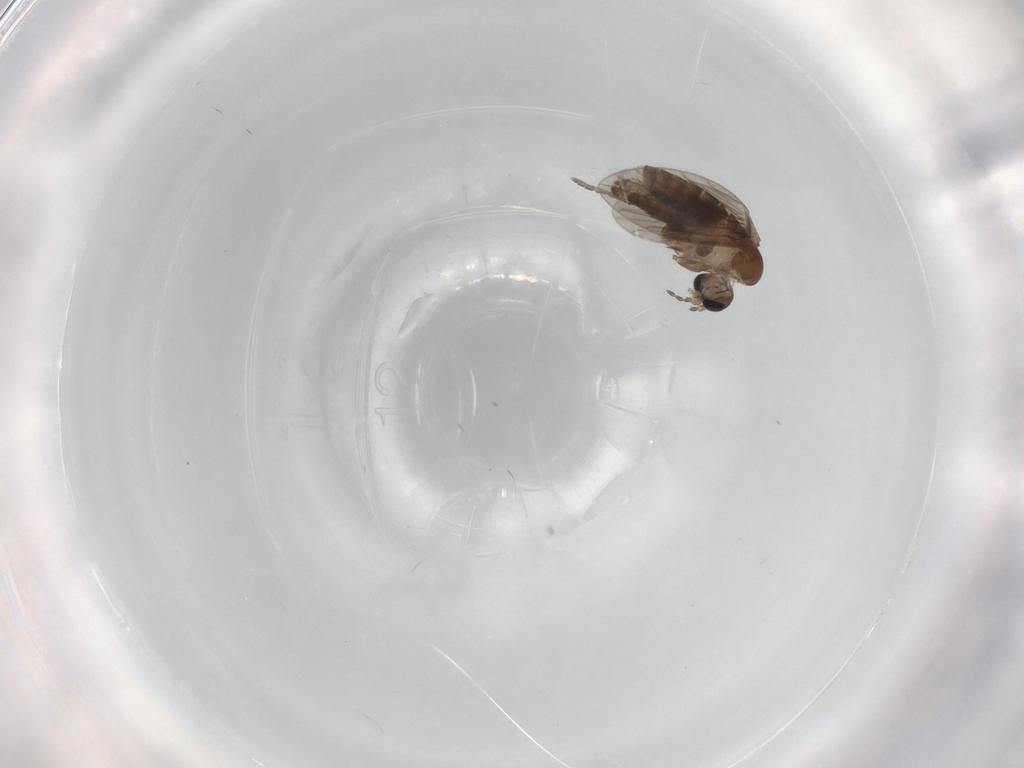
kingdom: Animalia
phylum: Arthropoda
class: Insecta
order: Diptera
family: Psychodidae
